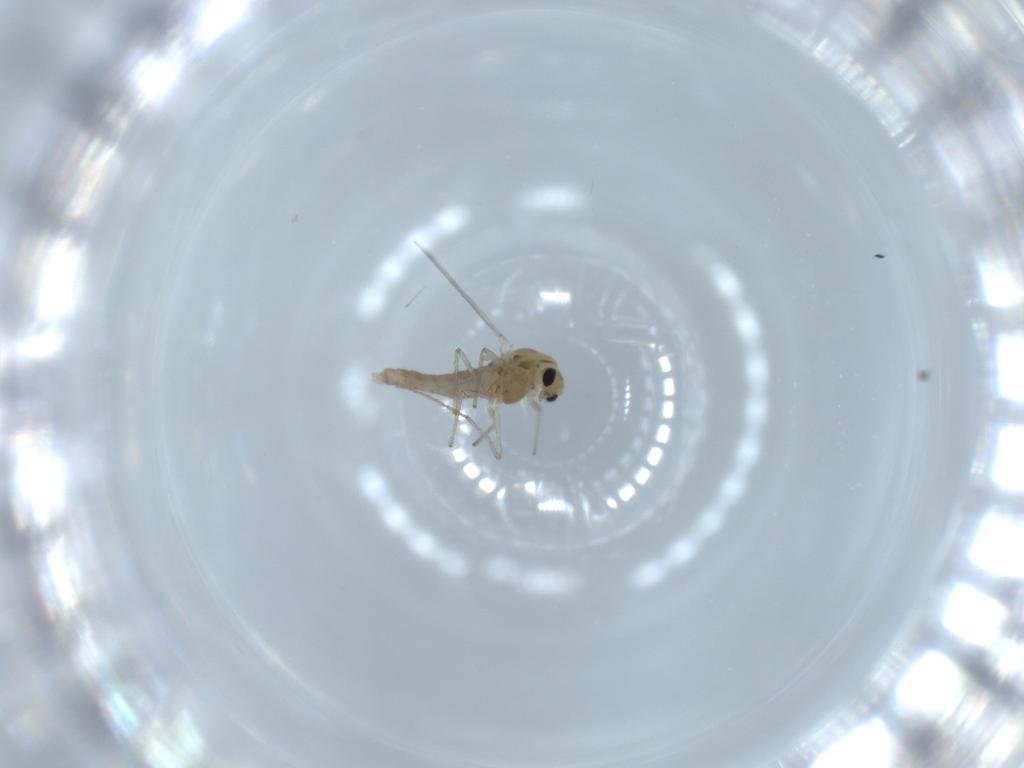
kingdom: Animalia
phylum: Arthropoda
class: Insecta
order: Diptera
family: Chironomidae
